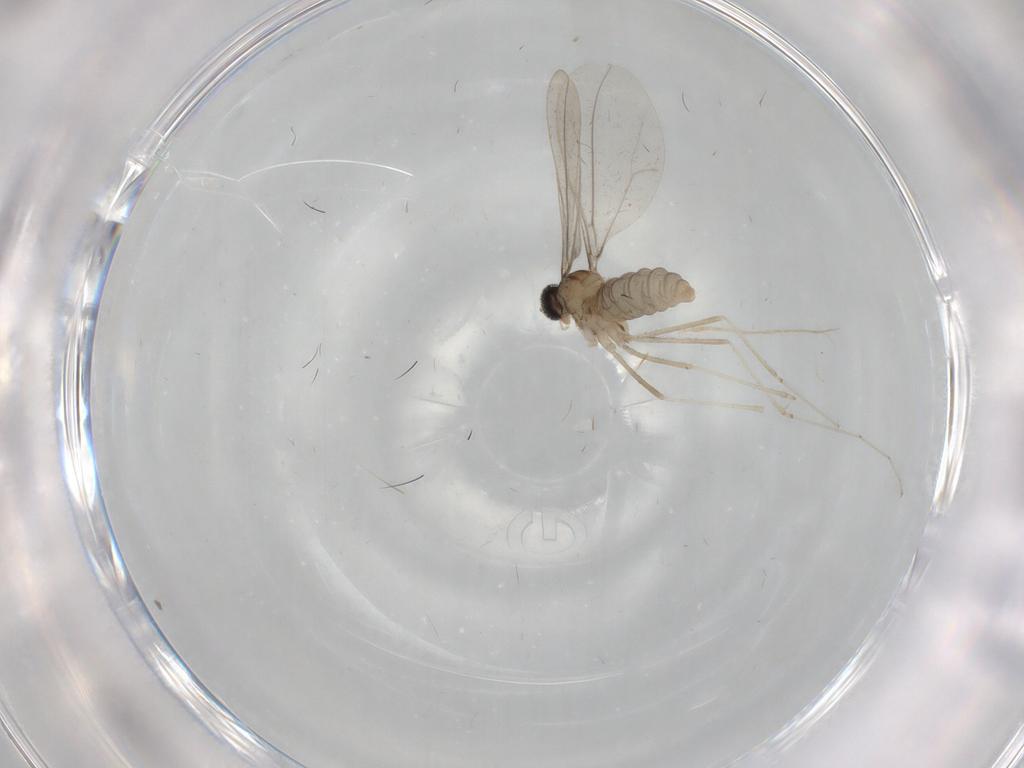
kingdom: Animalia
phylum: Arthropoda
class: Insecta
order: Diptera
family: Cecidomyiidae
